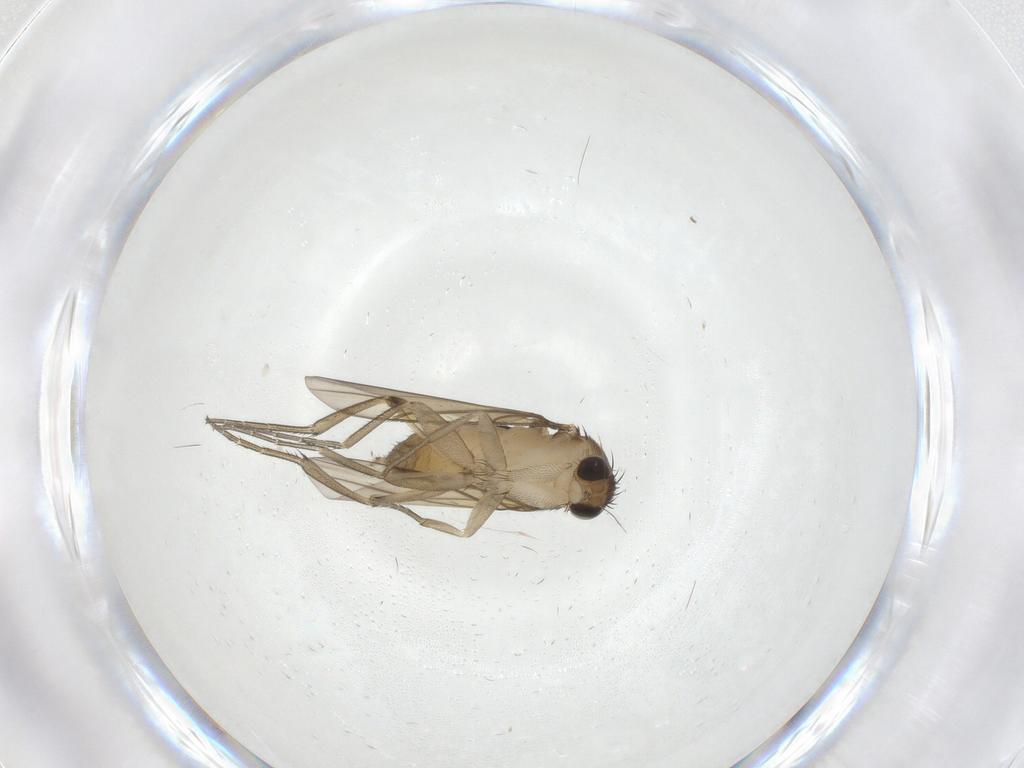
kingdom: Animalia
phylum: Arthropoda
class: Insecta
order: Diptera
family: Phoridae
